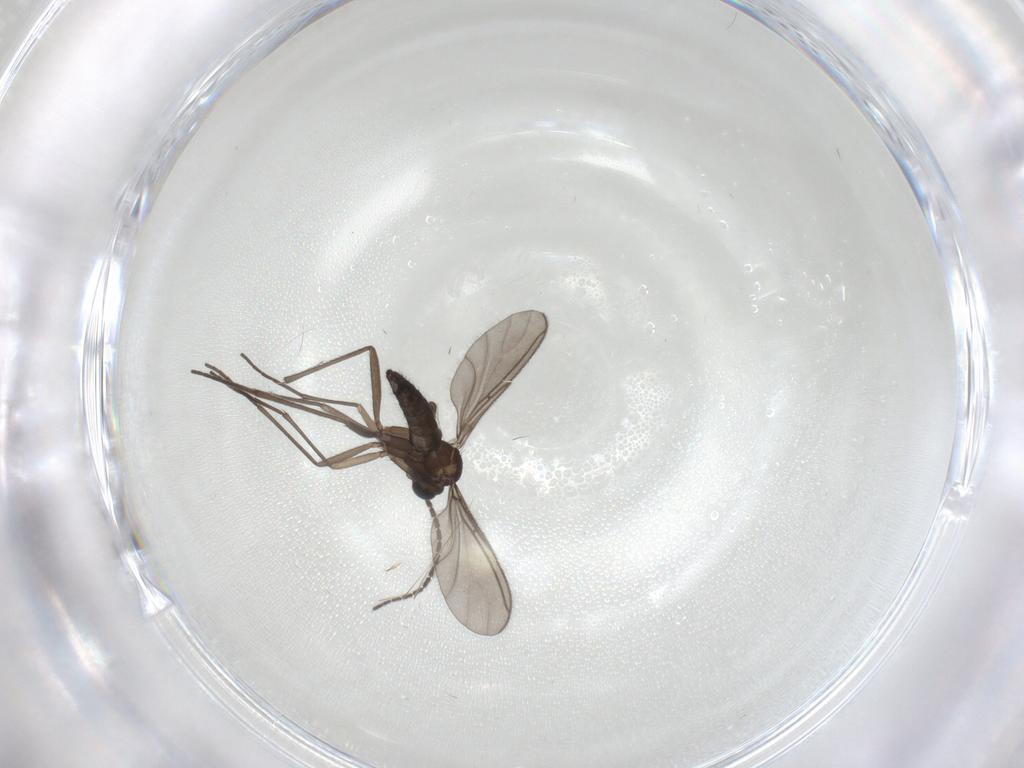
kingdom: Animalia
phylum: Arthropoda
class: Insecta
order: Diptera
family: Sciaridae
